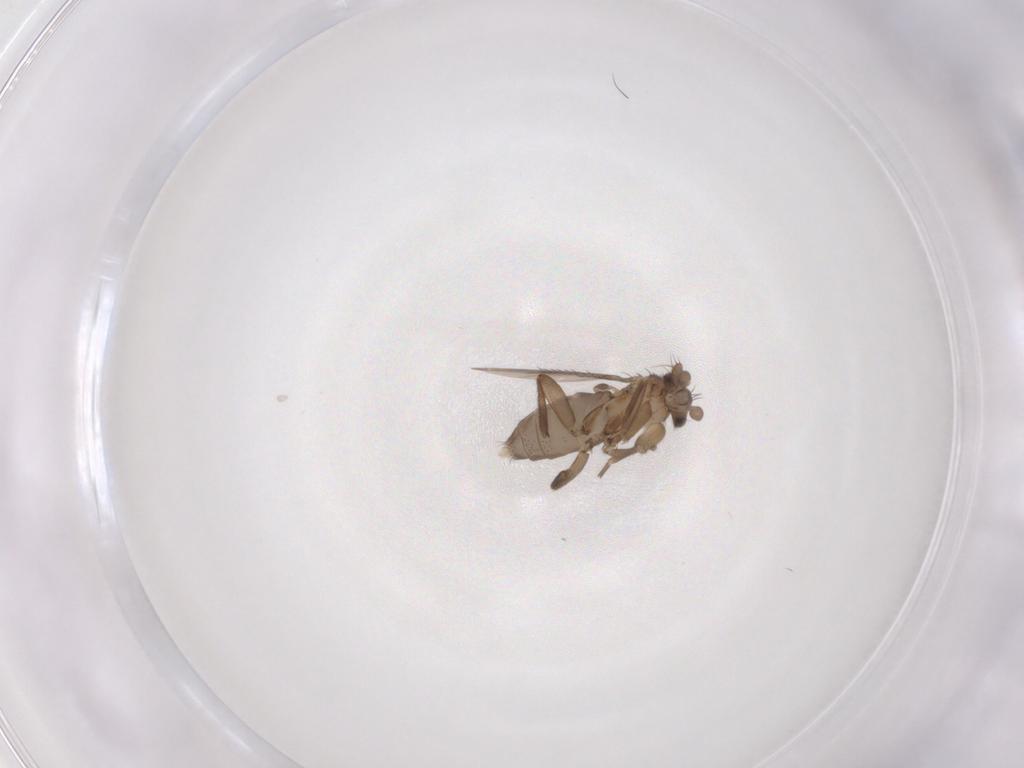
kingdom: Animalia
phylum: Arthropoda
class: Insecta
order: Diptera
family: Phoridae
